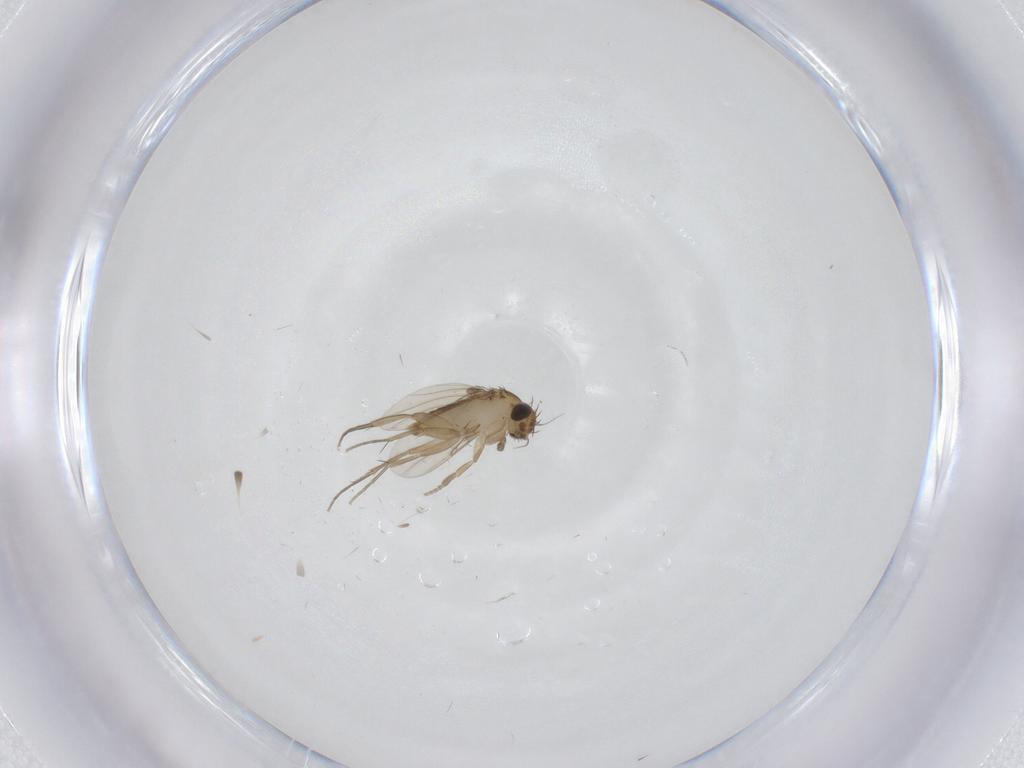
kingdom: Animalia
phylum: Arthropoda
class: Insecta
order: Diptera
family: Phoridae
